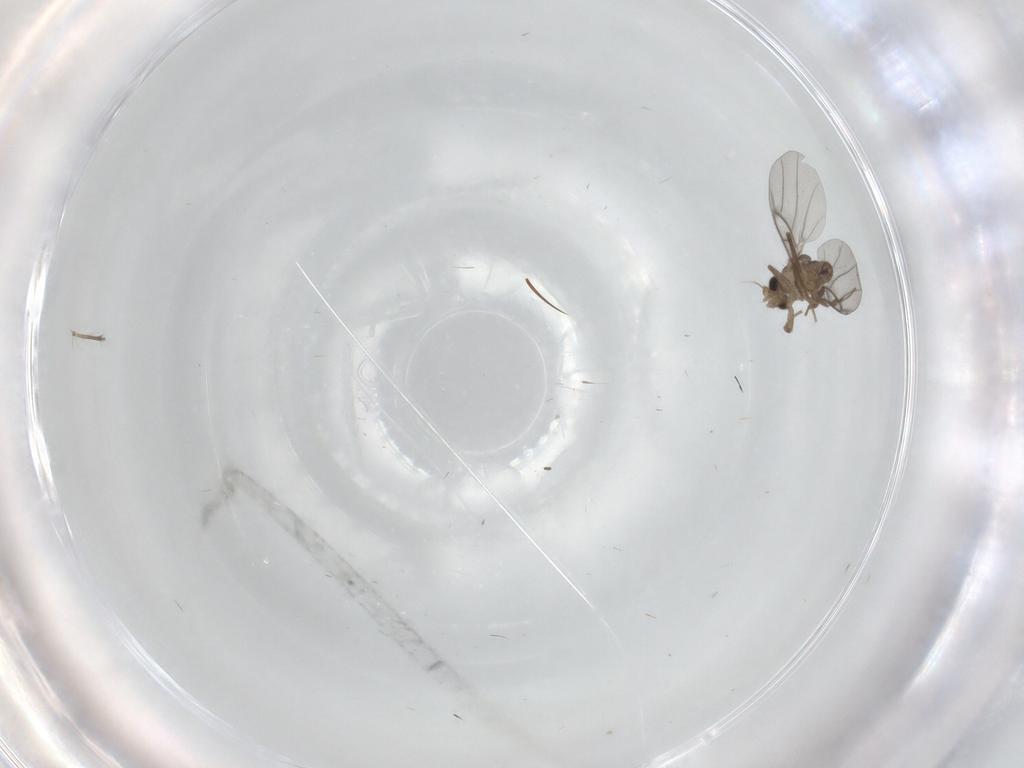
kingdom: Animalia
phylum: Arthropoda
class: Insecta
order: Diptera
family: Ceratopogonidae
